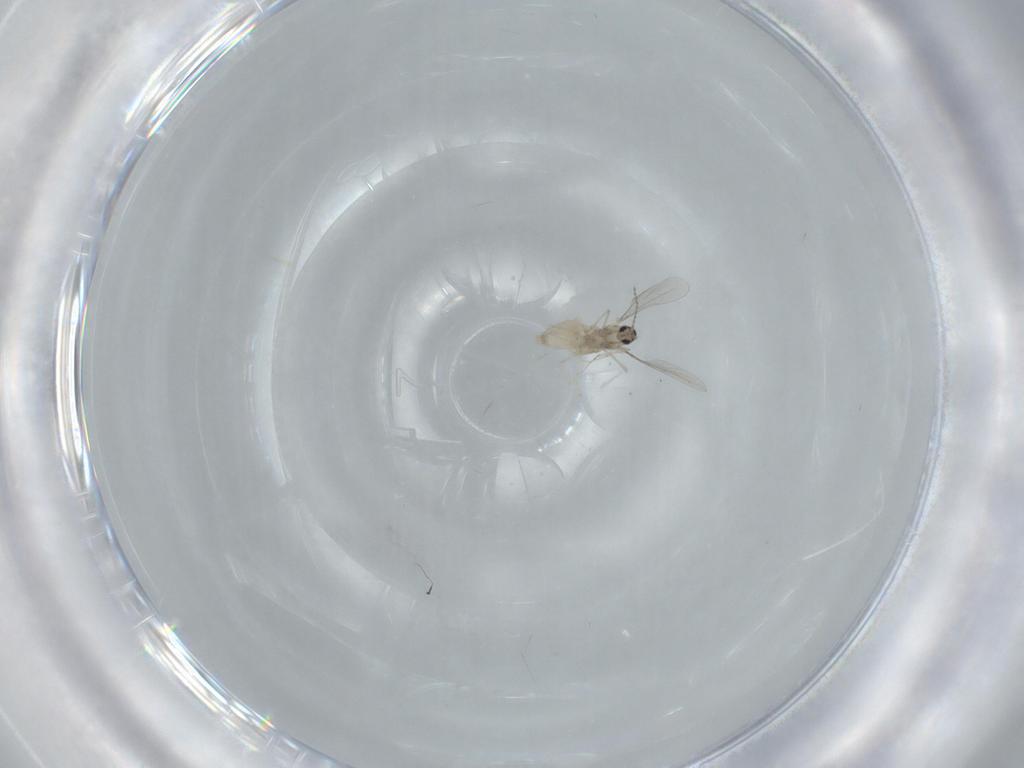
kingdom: Animalia
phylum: Arthropoda
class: Insecta
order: Diptera
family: Cecidomyiidae
